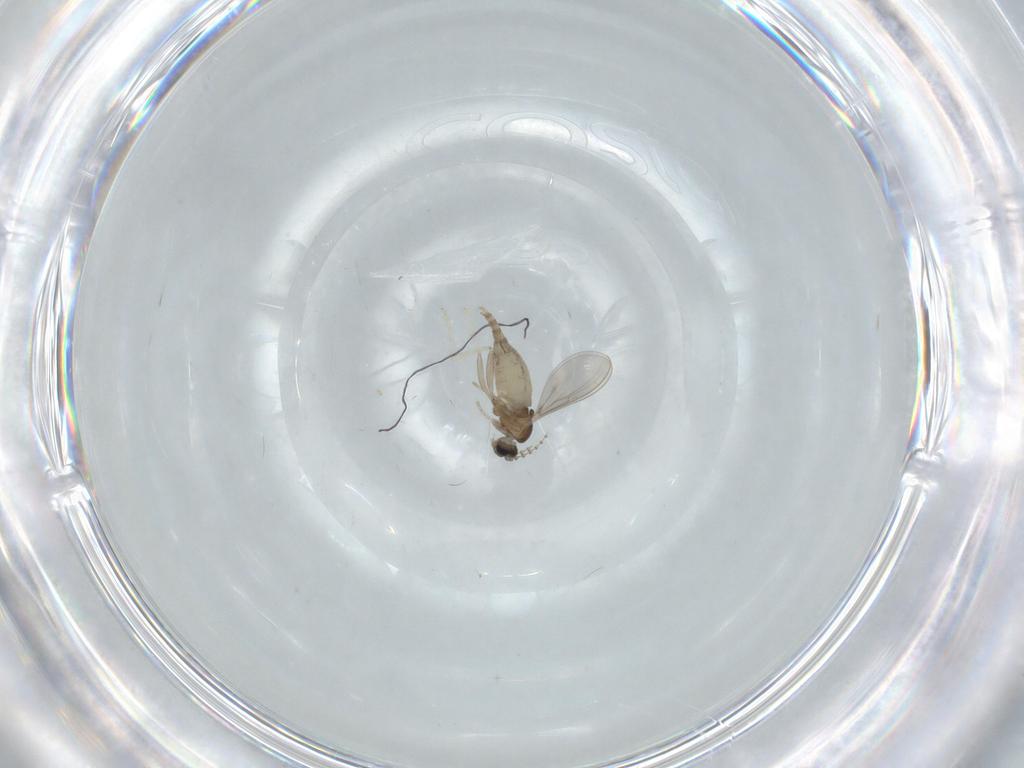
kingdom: Animalia
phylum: Arthropoda
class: Insecta
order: Diptera
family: Cecidomyiidae
